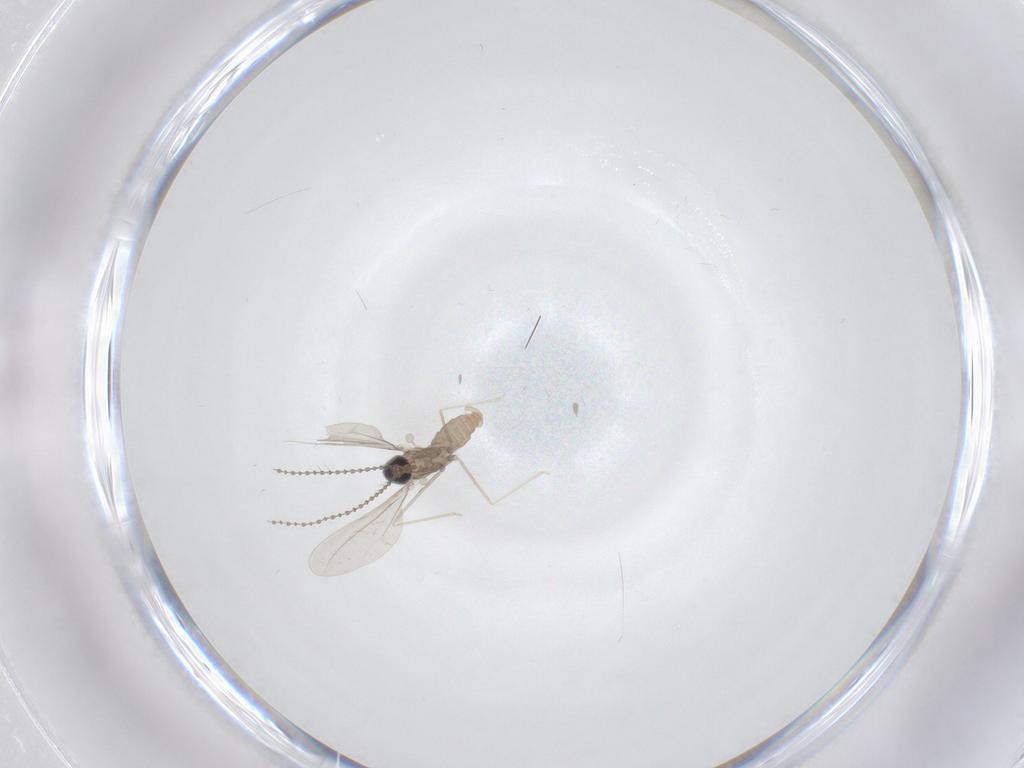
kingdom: Animalia
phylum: Arthropoda
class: Insecta
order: Diptera
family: Cecidomyiidae
